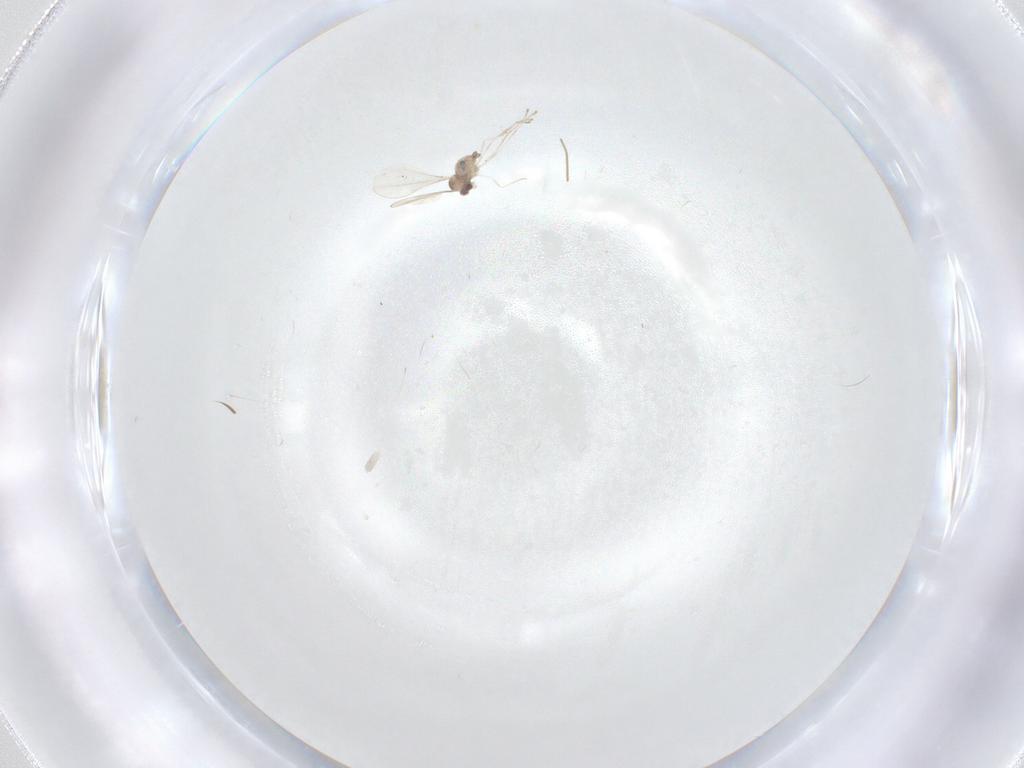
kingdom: Animalia
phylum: Arthropoda
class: Insecta
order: Diptera
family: Cecidomyiidae
